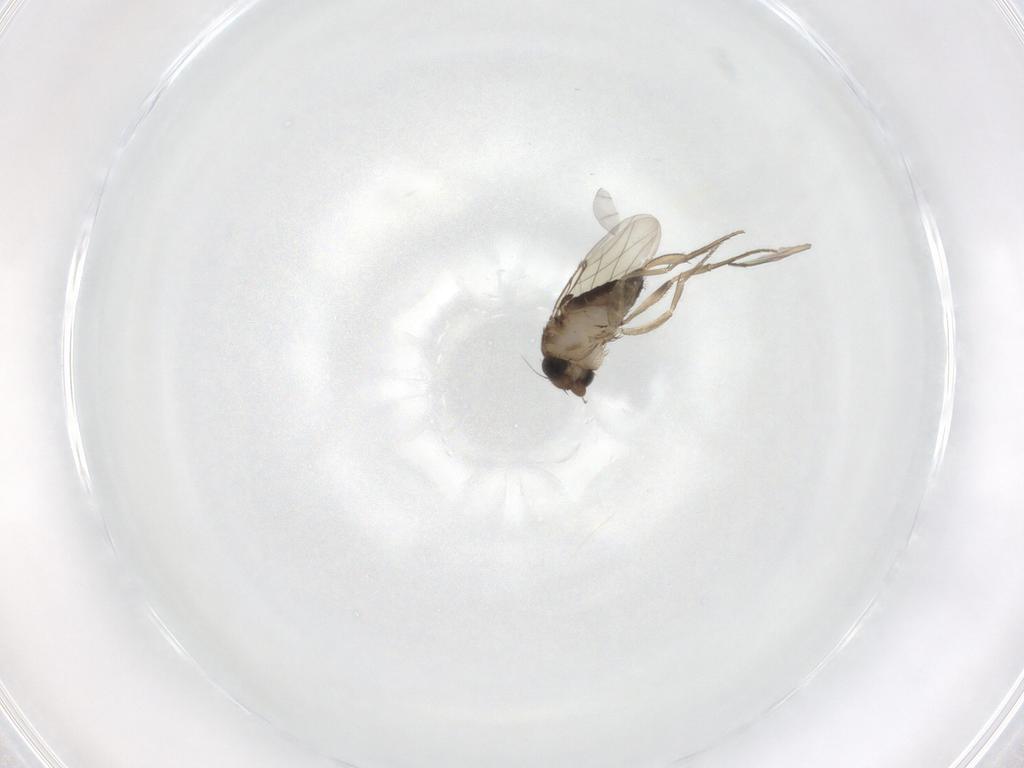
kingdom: Animalia
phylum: Arthropoda
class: Insecta
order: Diptera
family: Phoridae
